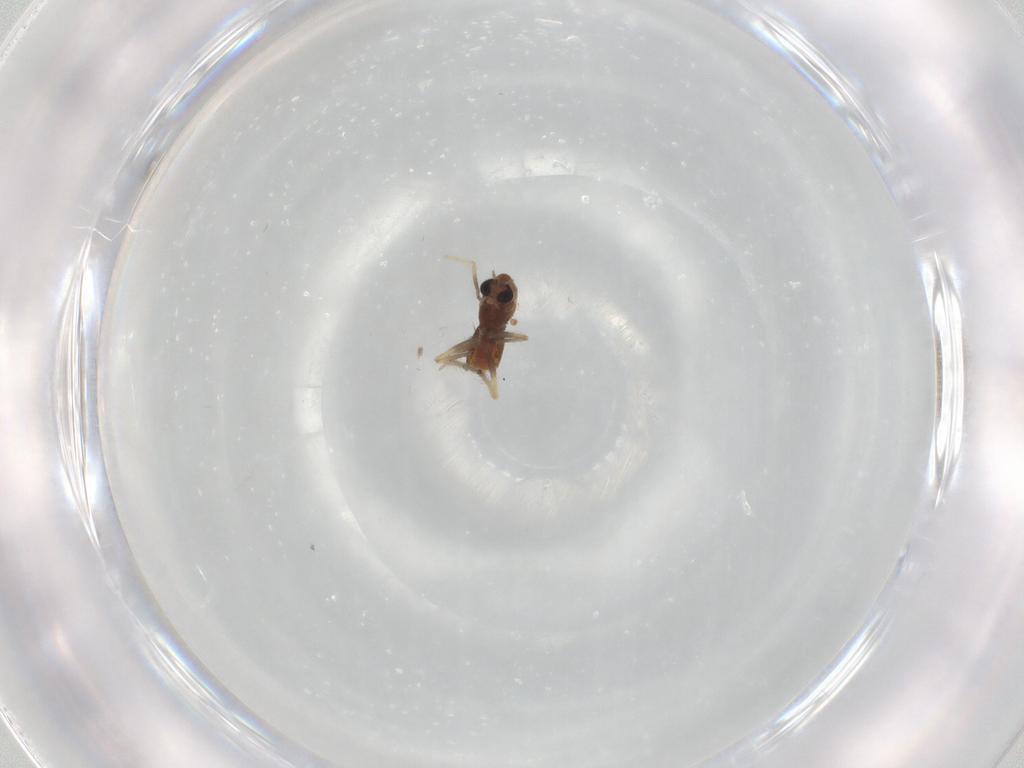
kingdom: Animalia
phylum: Arthropoda
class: Insecta
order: Diptera
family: Chironomidae
